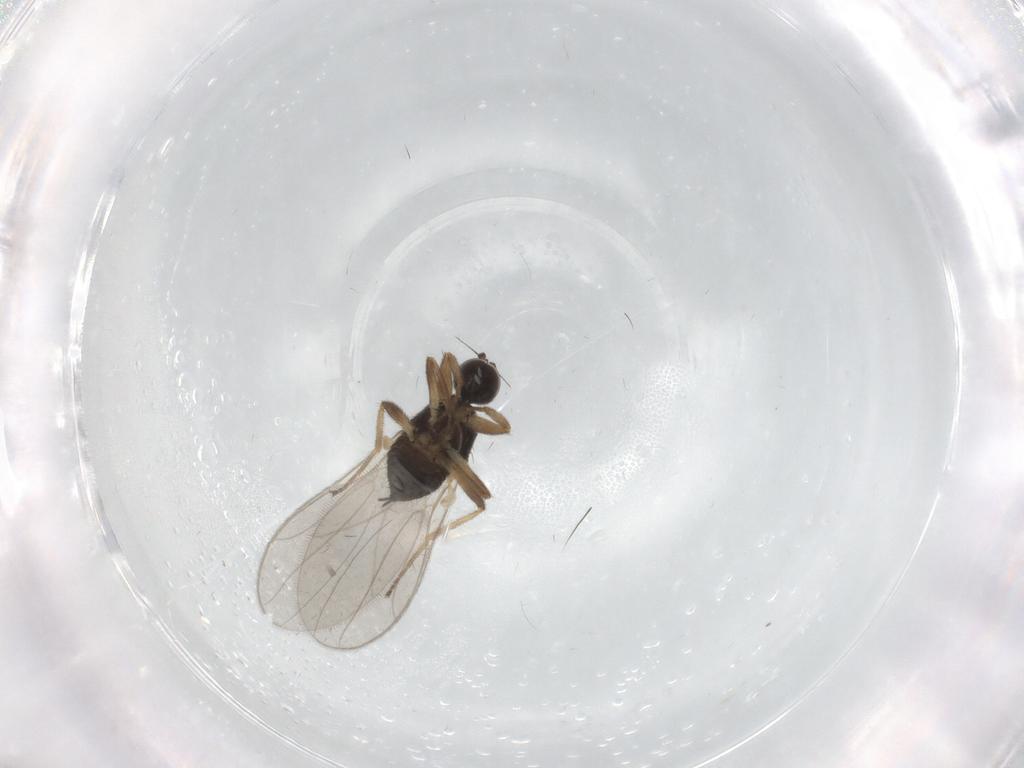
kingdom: Animalia
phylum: Arthropoda
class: Insecta
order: Diptera
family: Hybotidae
